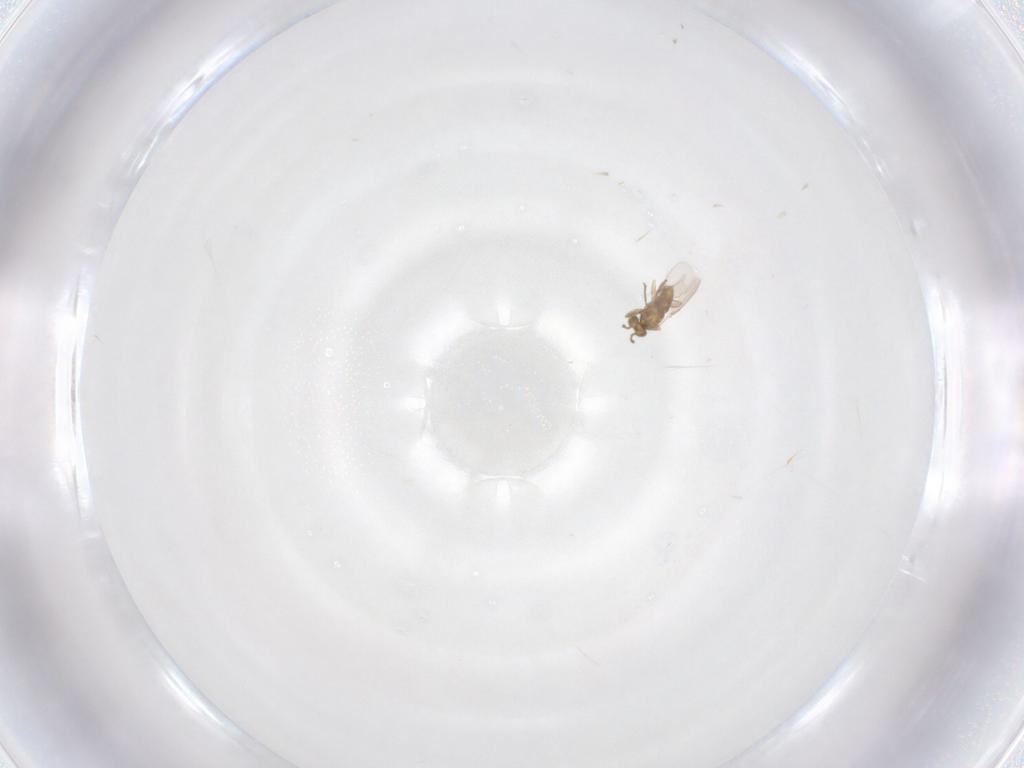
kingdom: Animalia
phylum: Arthropoda
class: Insecta
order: Hymenoptera
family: Aphelinidae
